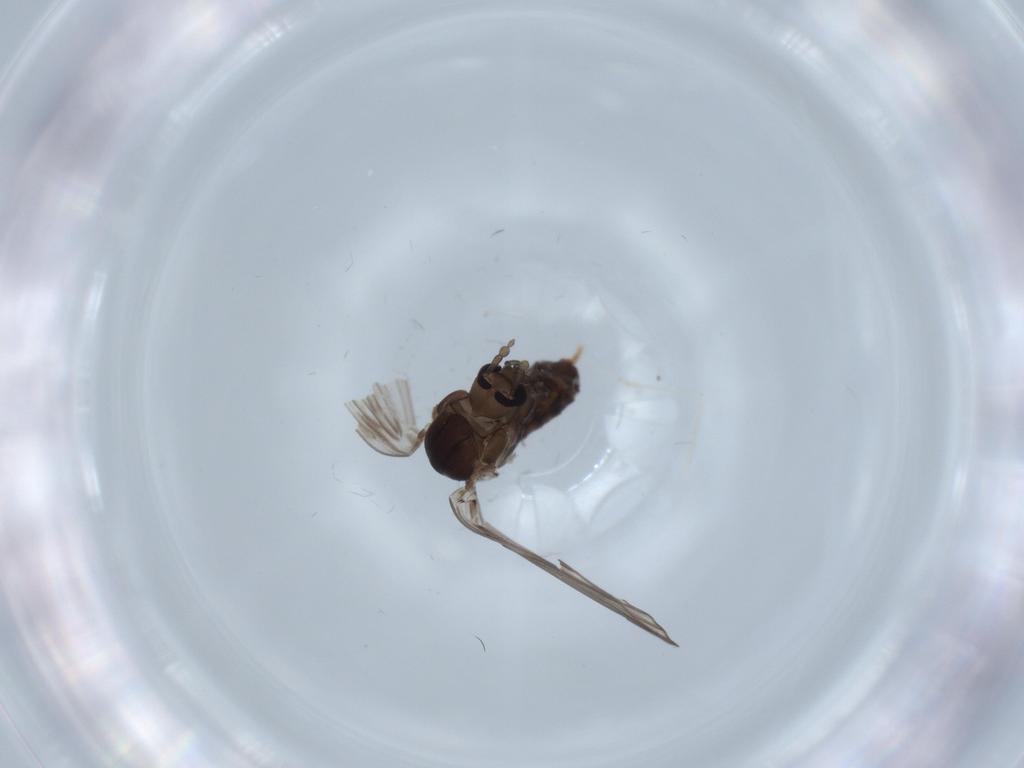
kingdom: Animalia
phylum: Arthropoda
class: Insecta
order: Diptera
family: Psychodidae
